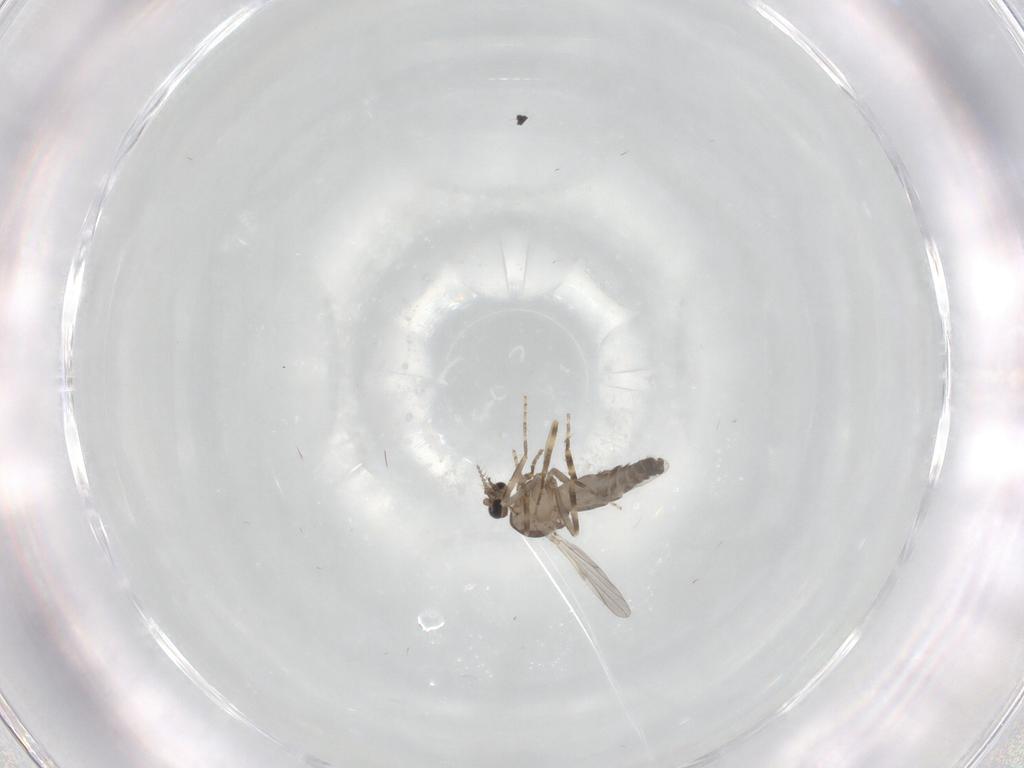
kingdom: Animalia
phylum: Arthropoda
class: Insecta
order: Diptera
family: Ceratopogonidae
